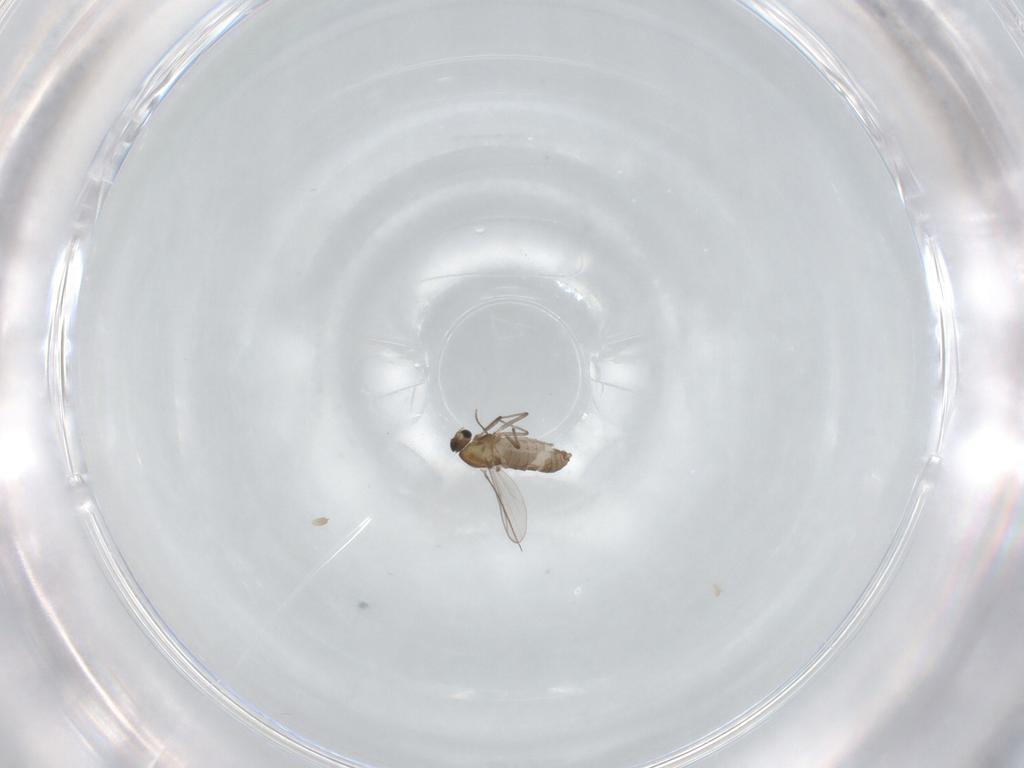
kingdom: Animalia
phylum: Arthropoda
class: Insecta
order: Diptera
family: Chironomidae
